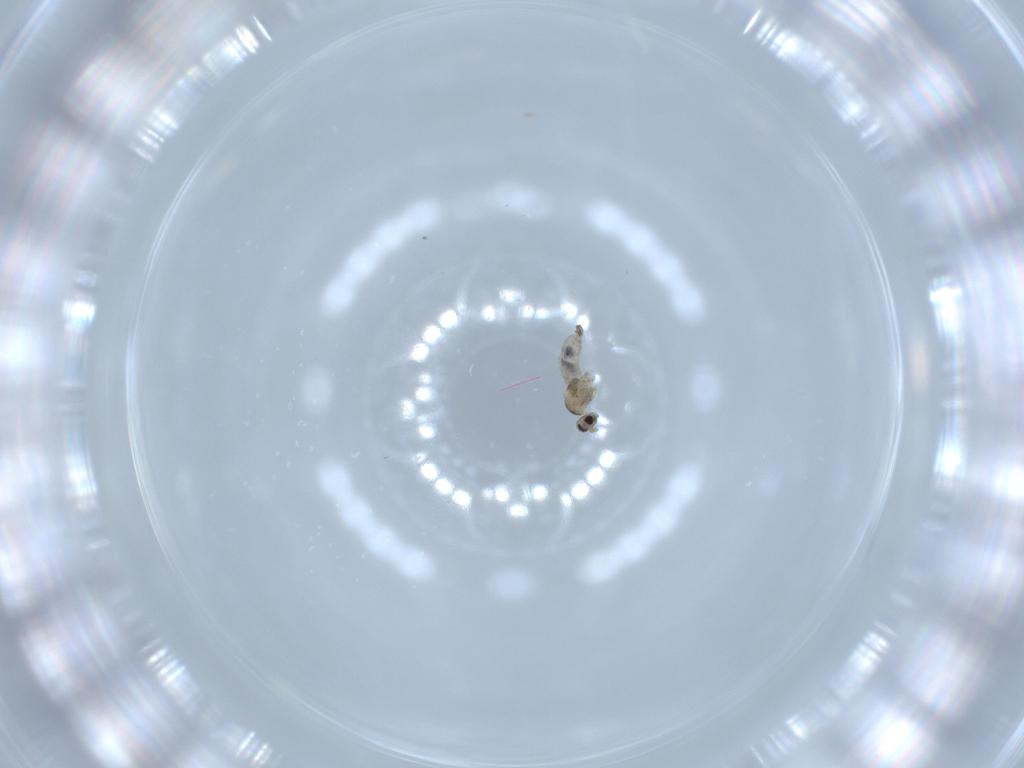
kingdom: Animalia
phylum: Arthropoda
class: Insecta
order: Diptera
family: Cecidomyiidae
